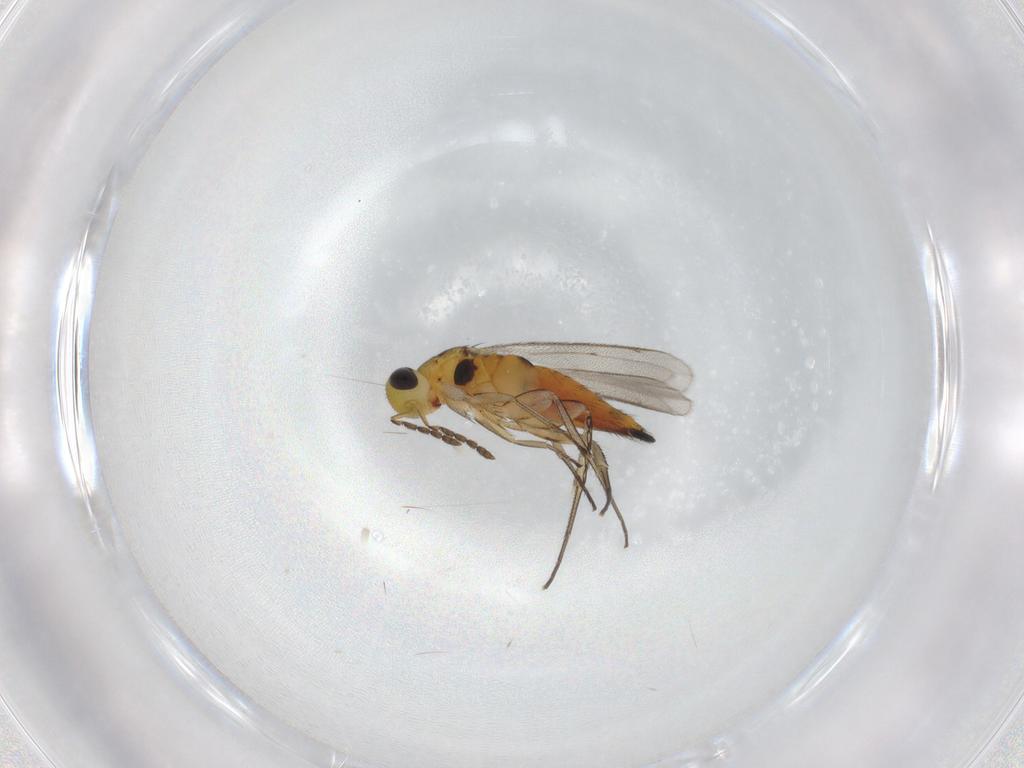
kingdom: Animalia
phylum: Arthropoda
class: Insecta
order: Hymenoptera
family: Eulophidae
